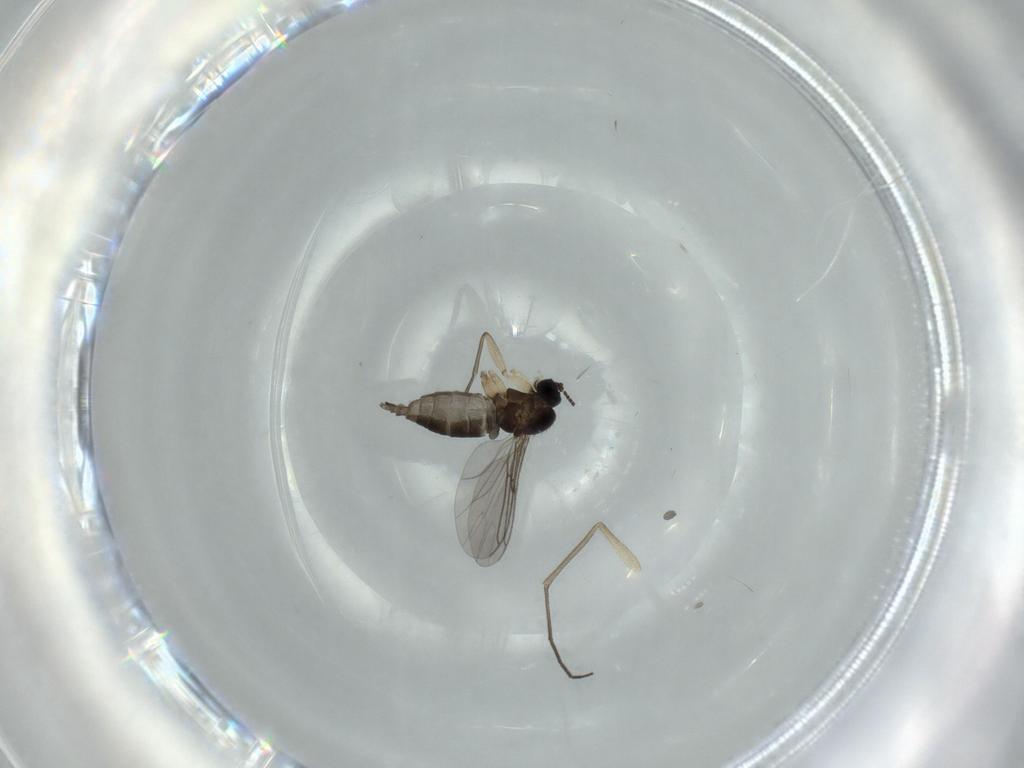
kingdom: Animalia
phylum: Arthropoda
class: Insecta
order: Diptera
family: Sciaridae
